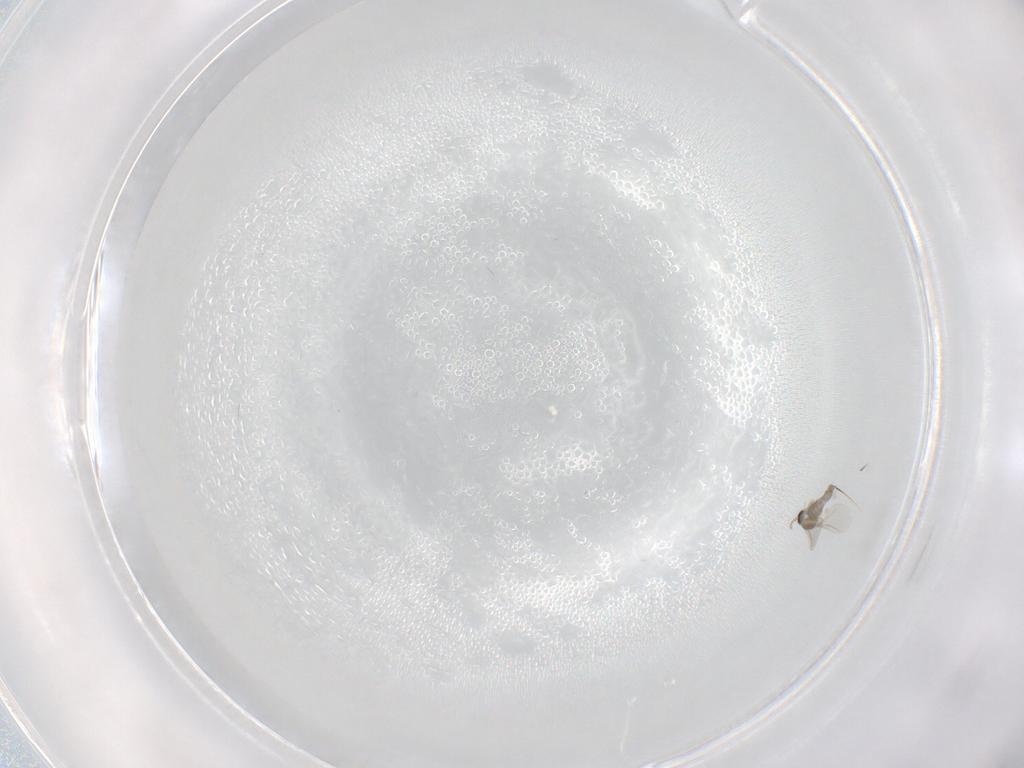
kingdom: Animalia
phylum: Arthropoda
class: Insecta
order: Diptera
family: Cecidomyiidae
